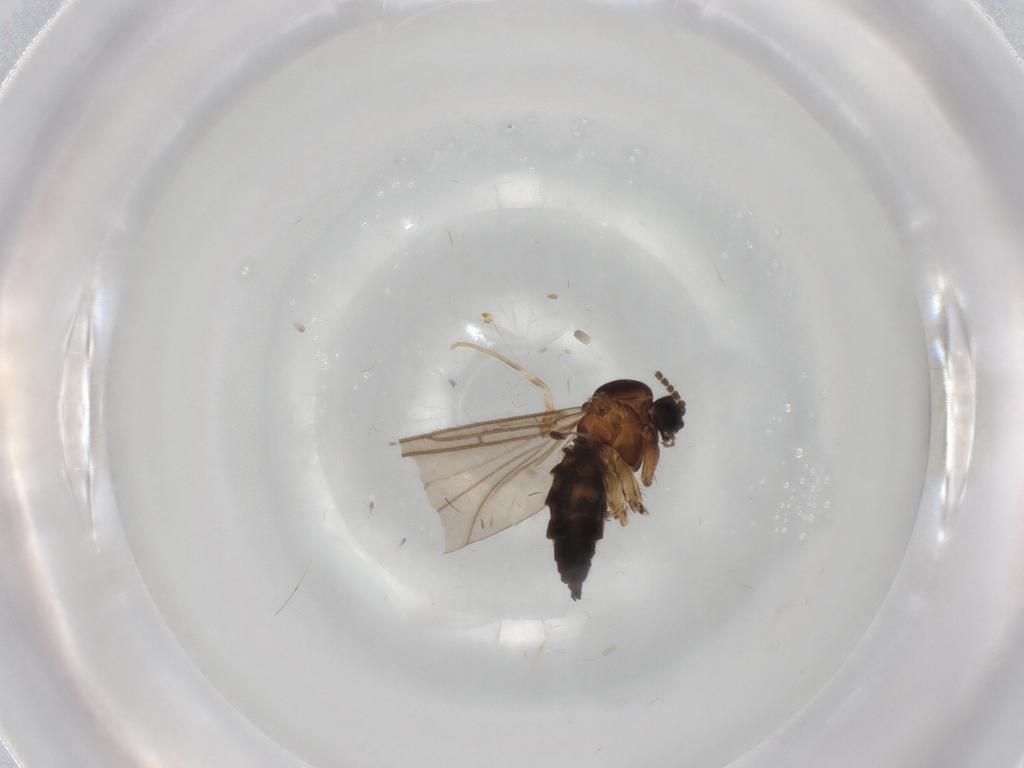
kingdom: Animalia
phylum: Arthropoda
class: Insecta
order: Diptera
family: Sciaridae
